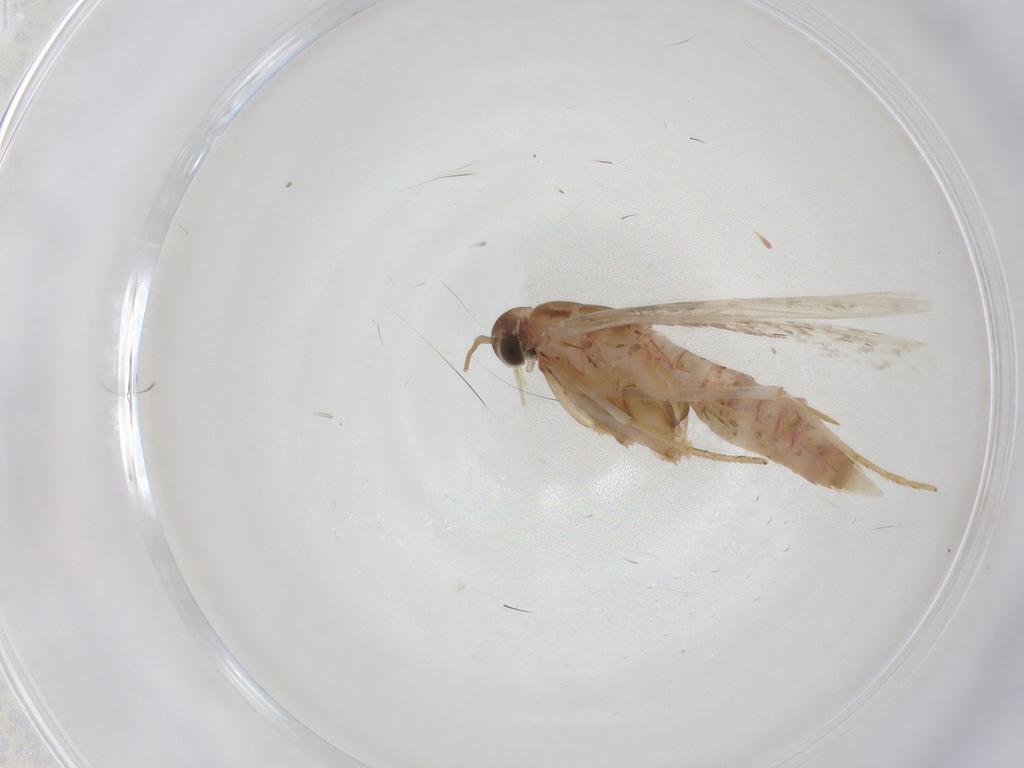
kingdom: Animalia
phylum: Arthropoda
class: Insecta
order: Lepidoptera
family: Crambidae
